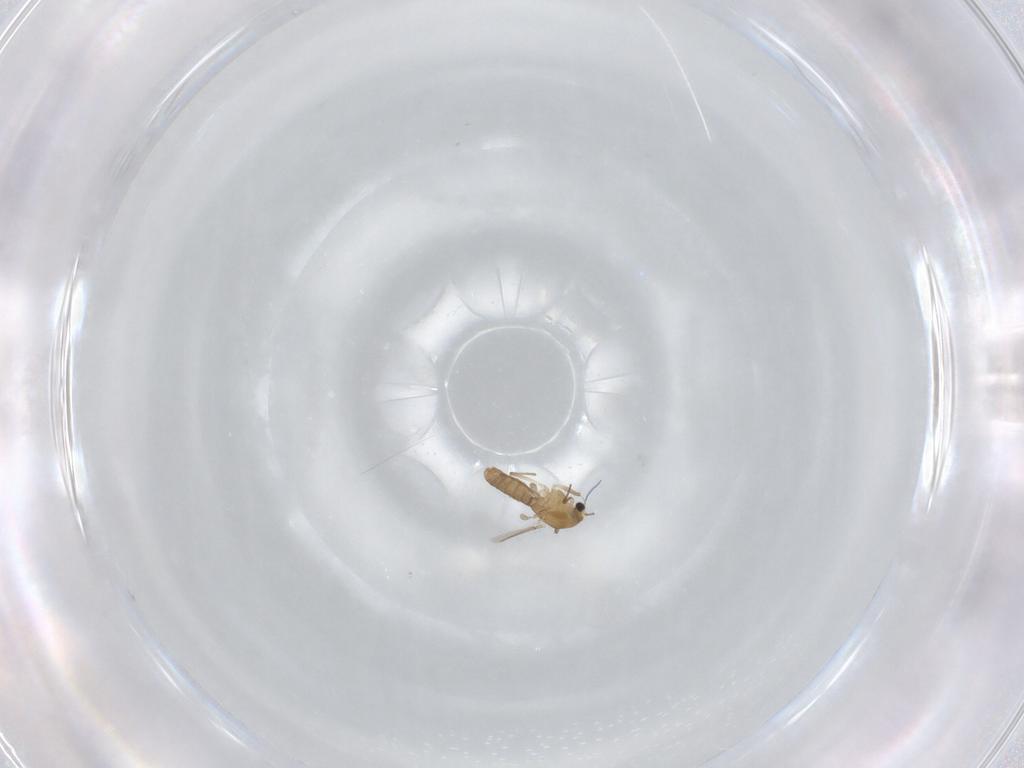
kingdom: Animalia
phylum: Arthropoda
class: Insecta
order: Diptera
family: Chironomidae
